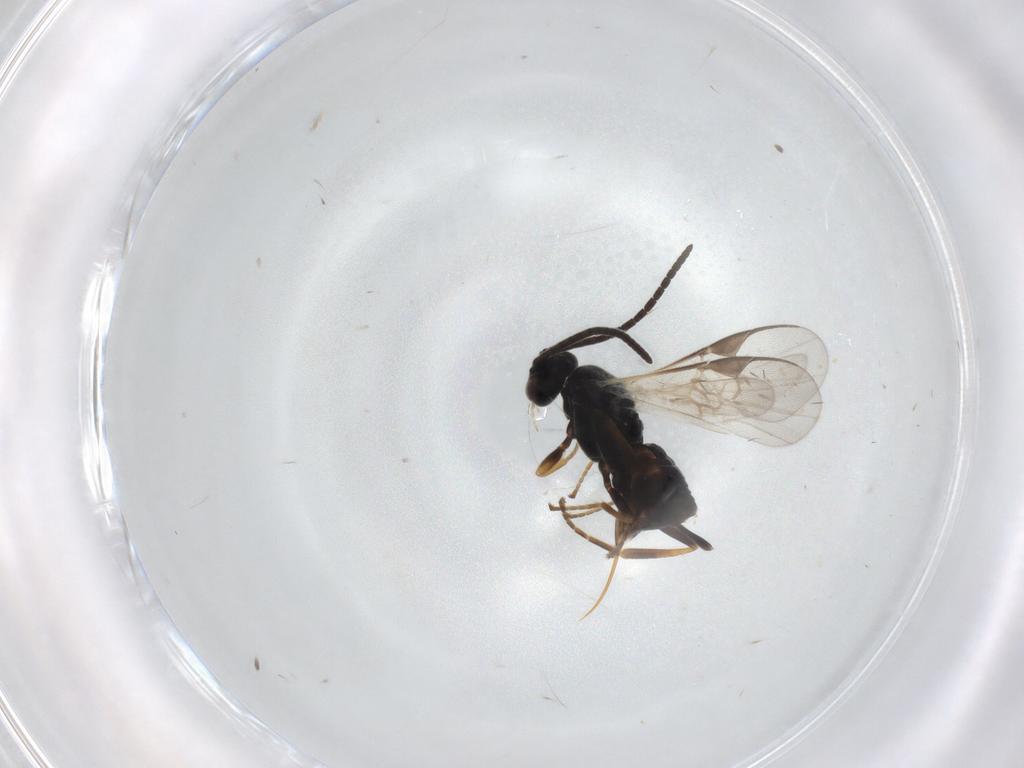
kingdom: Animalia
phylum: Arthropoda
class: Insecta
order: Hymenoptera
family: Braconidae
